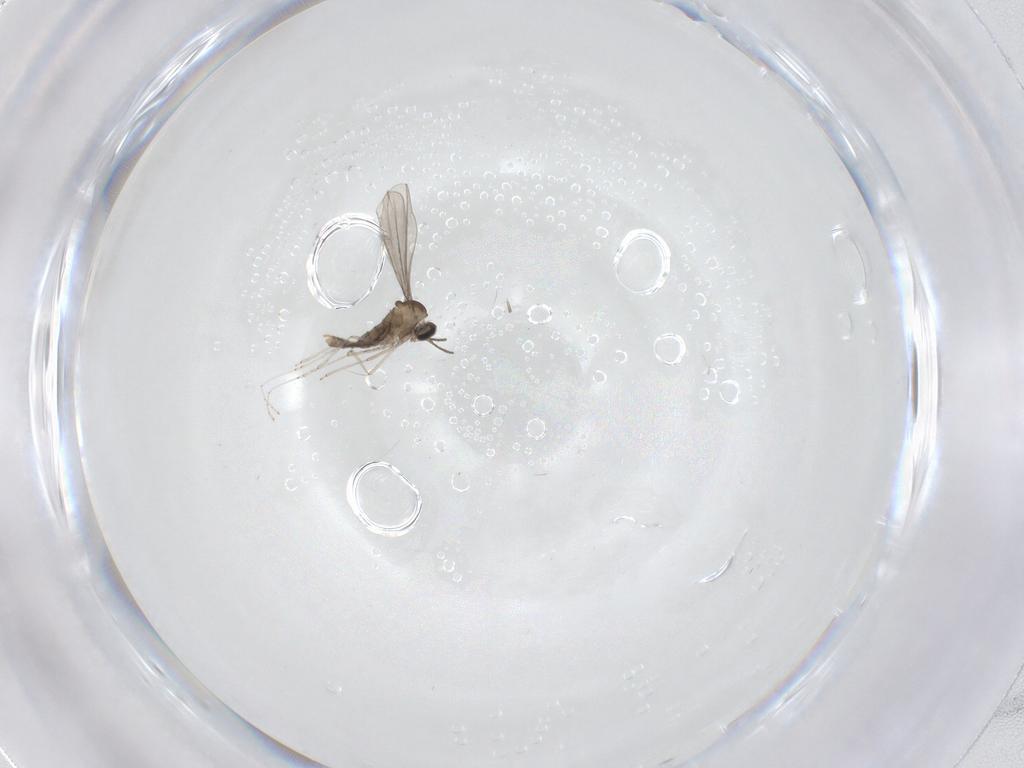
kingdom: Animalia
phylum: Arthropoda
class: Insecta
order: Diptera
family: Cecidomyiidae
